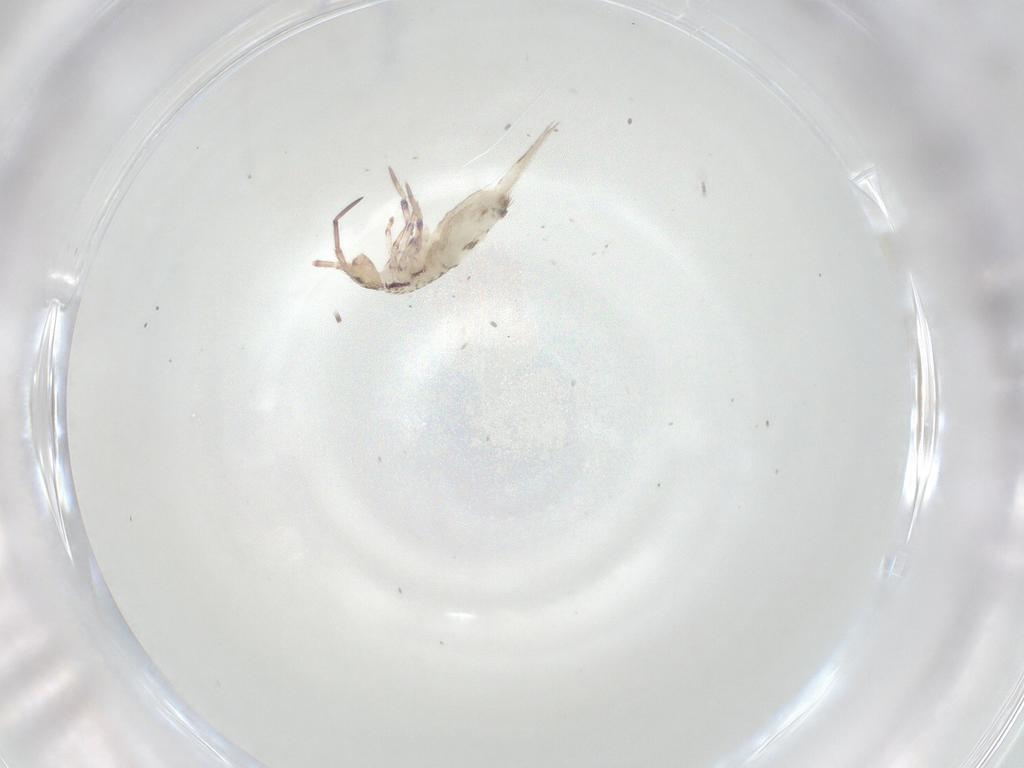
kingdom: Animalia
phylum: Arthropoda
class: Collembola
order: Entomobryomorpha
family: Entomobryidae
